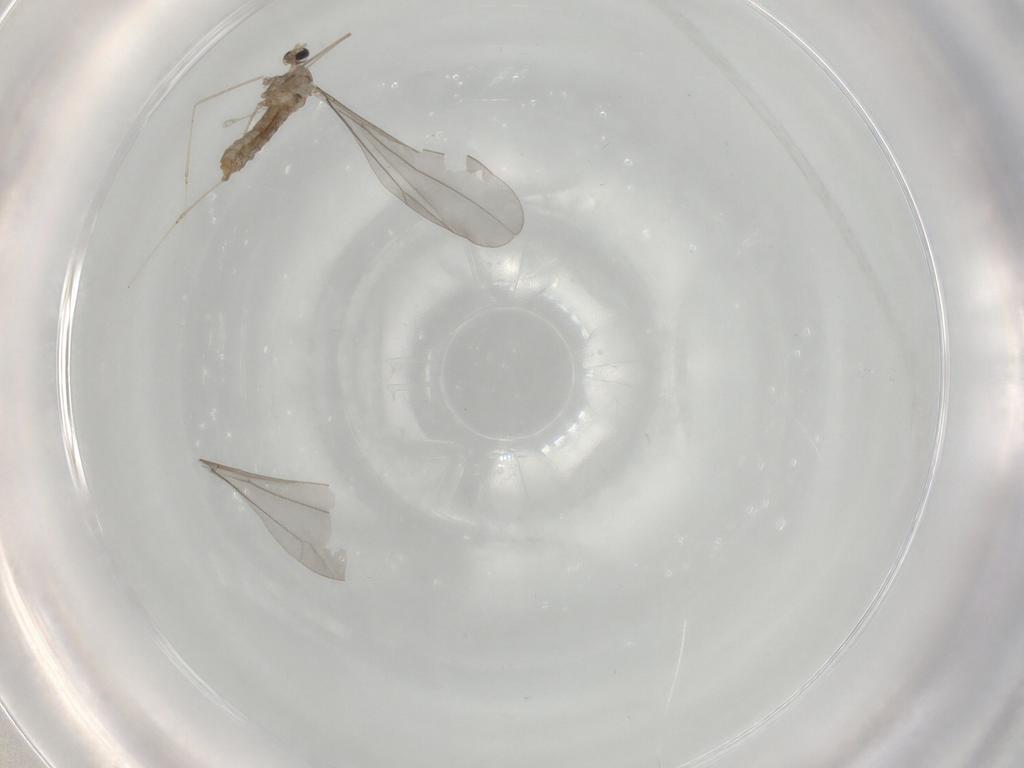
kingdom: Animalia
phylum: Arthropoda
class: Insecta
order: Diptera
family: Cecidomyiidae
